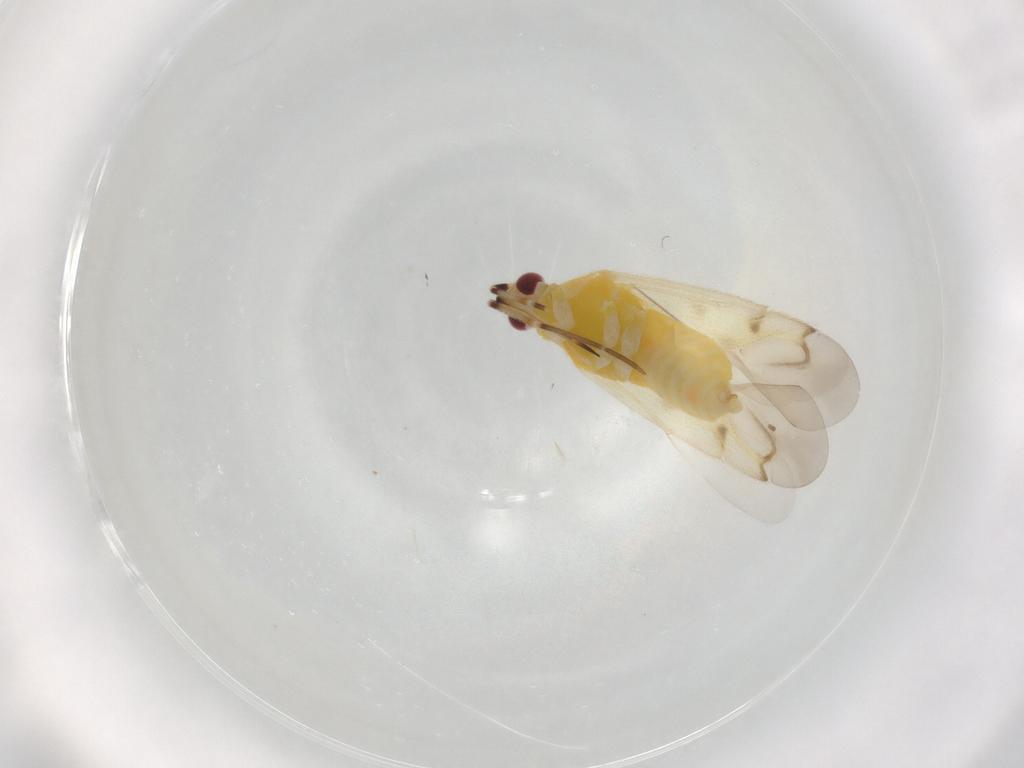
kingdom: Animalia
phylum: Arthropoda
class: Insecta
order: Hemiptera
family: Miridae
